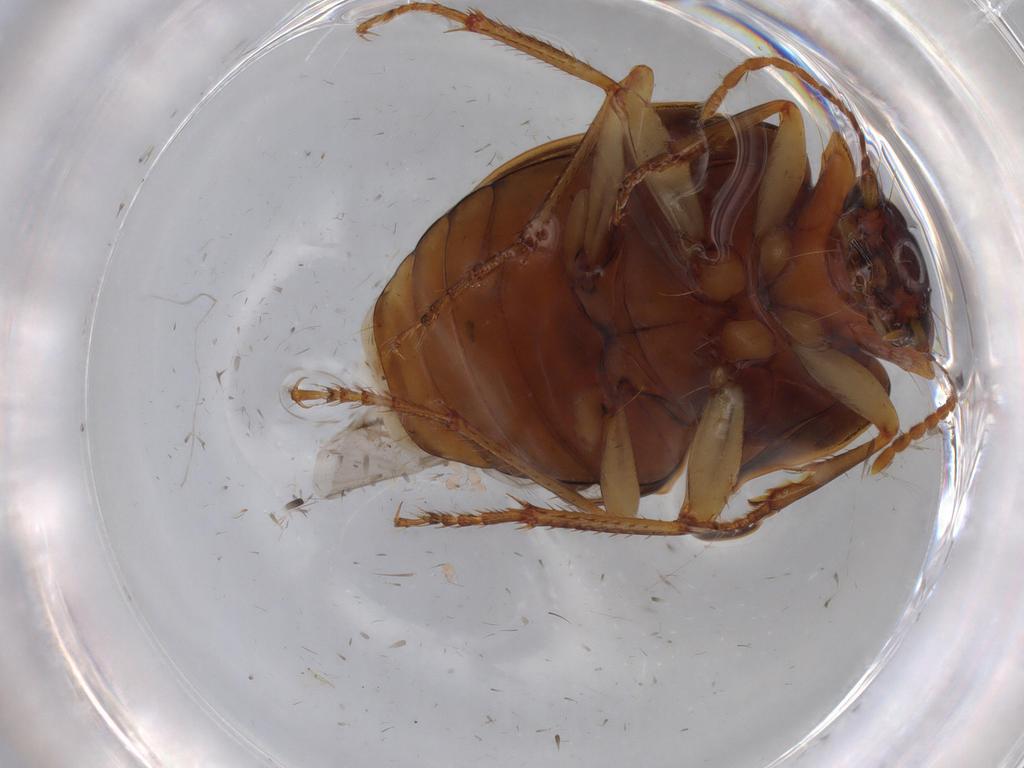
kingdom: Animalia
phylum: Arthropoda
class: Insecta
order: Coleoptera
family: Carabidae
